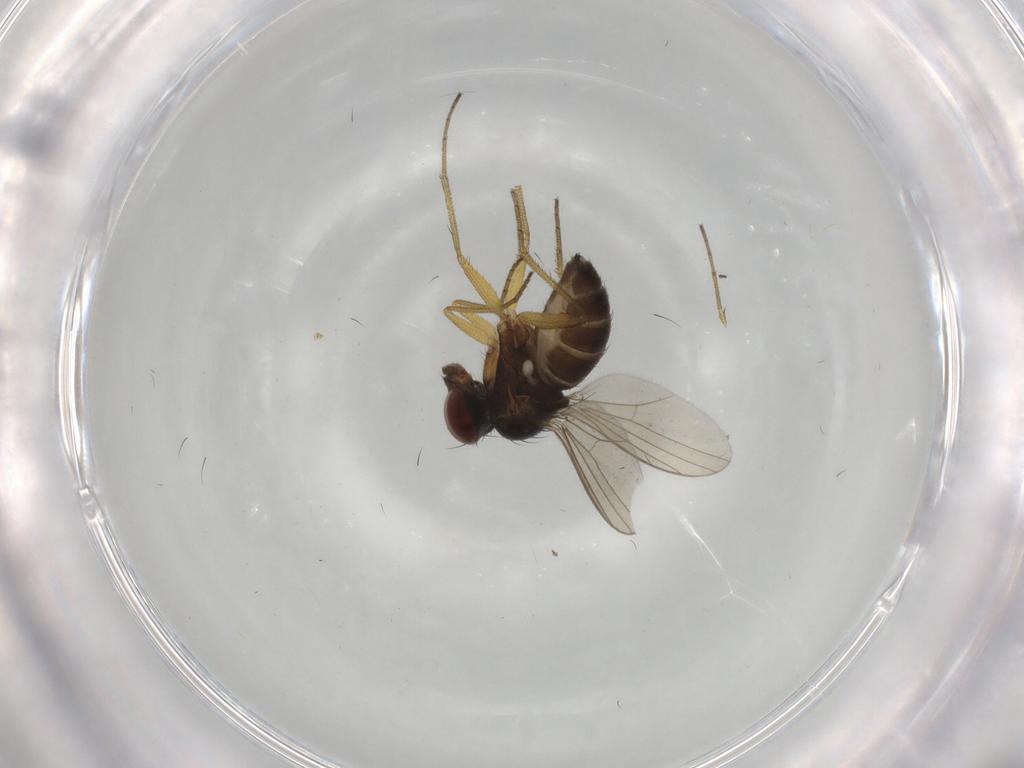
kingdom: Animalia
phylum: Arthropoda
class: Insecta
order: Diptera
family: Dolichopodidae
